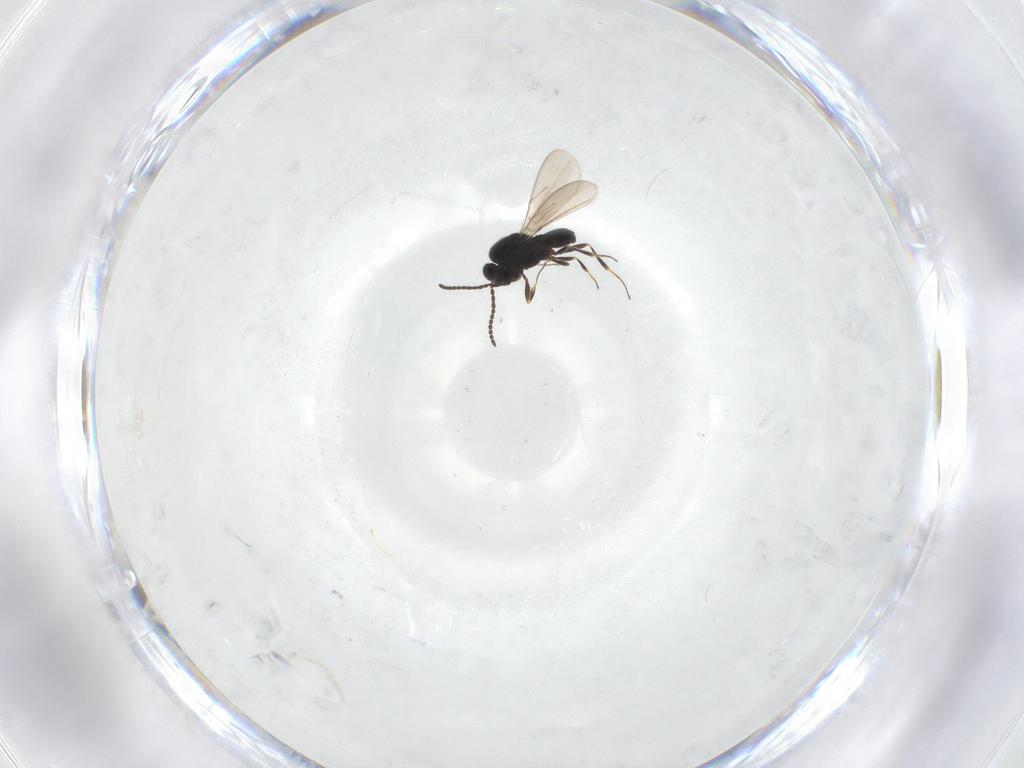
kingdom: Animalia
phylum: Arthropoda
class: Insecta
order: Hymenoptera
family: Scelionidae
